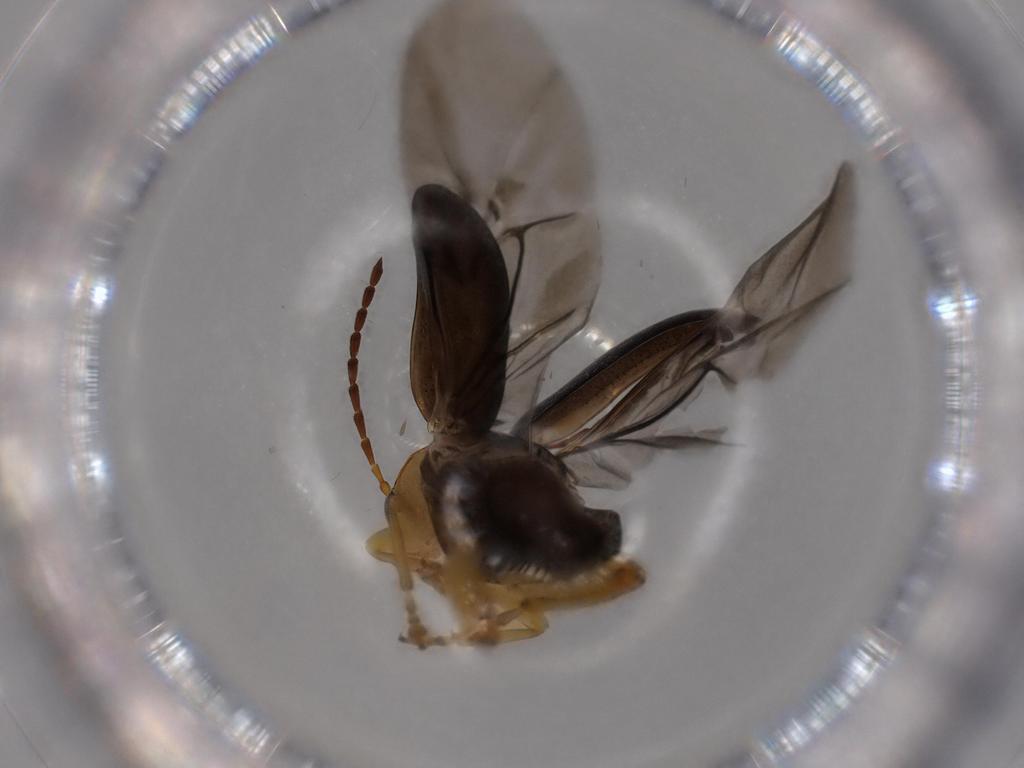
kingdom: Animalia
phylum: Arthropoda
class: Insecta
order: Coleoptera
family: Chrysomelidae
